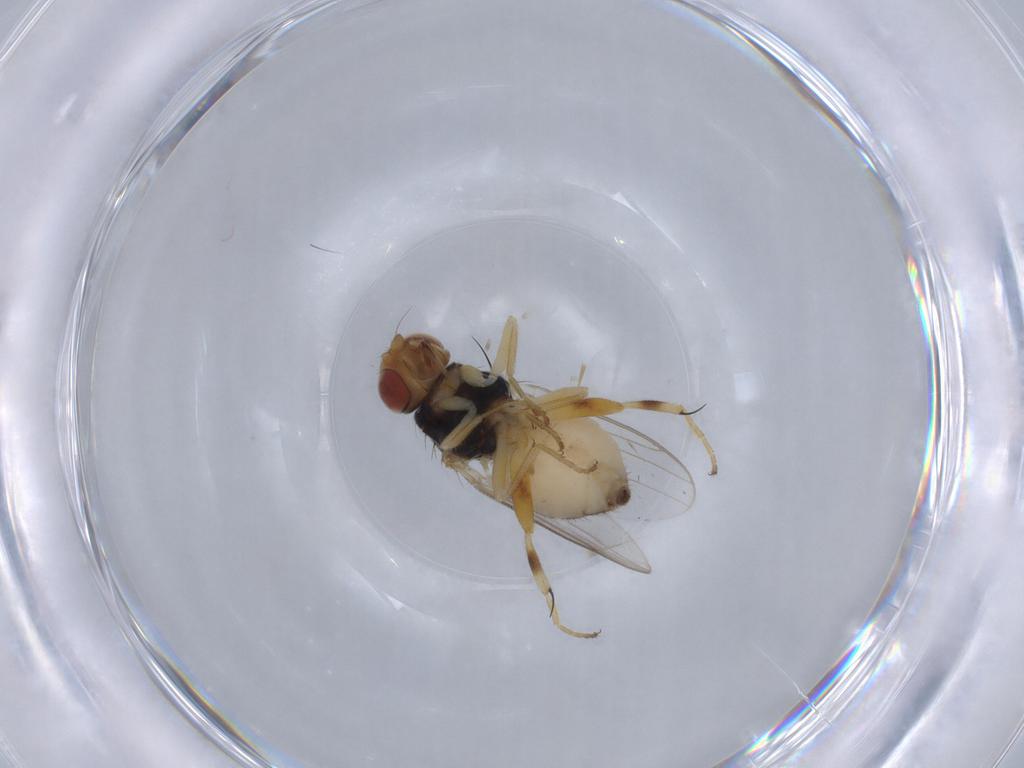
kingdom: Animalia
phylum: Arthropoda
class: Insecta
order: Diptera
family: Chloropidae
